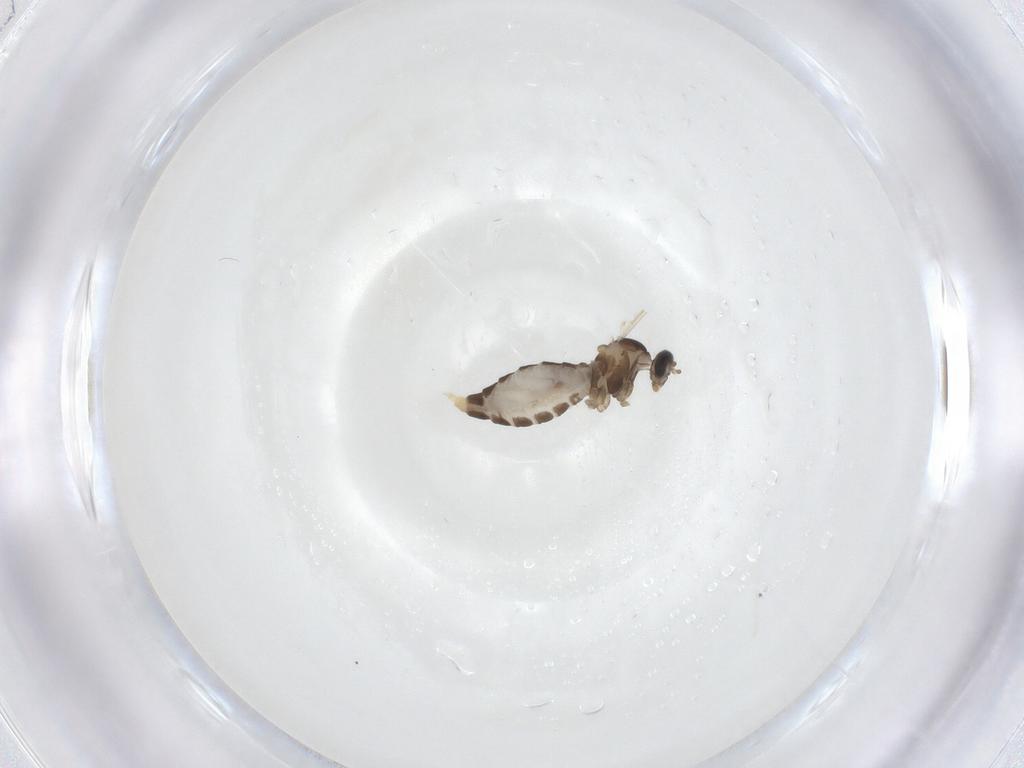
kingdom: Animalia
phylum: Arthropoda
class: Insecta
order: Diptera
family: Cecidomyiidae
